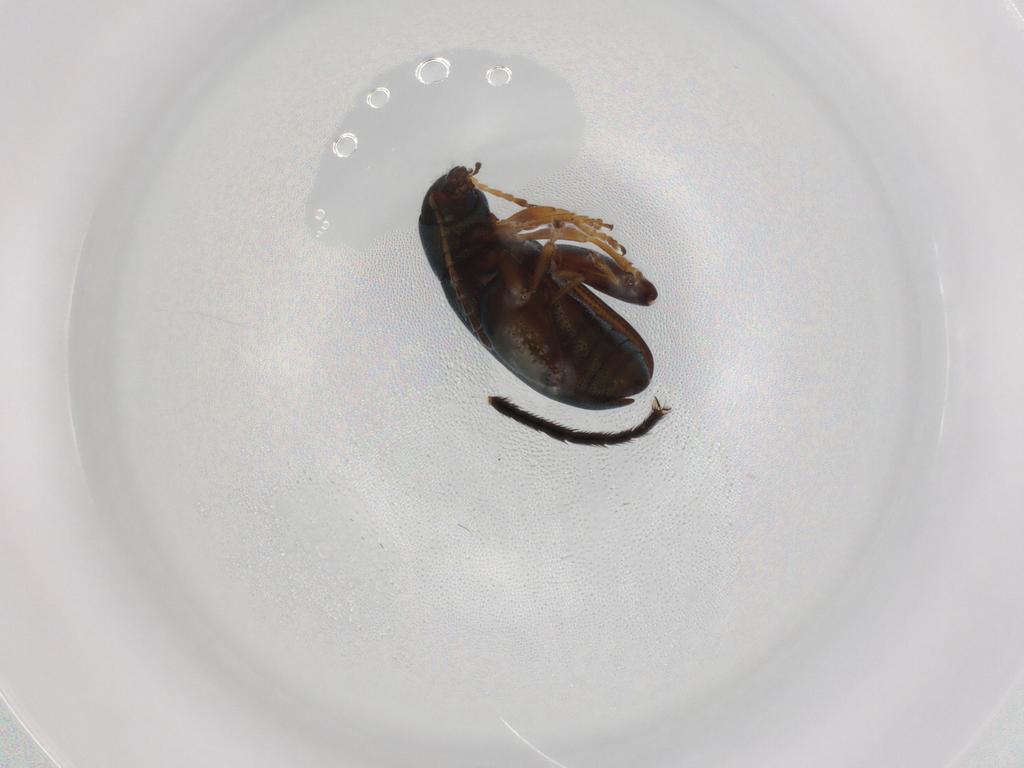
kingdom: Animalia
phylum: Arthropoda
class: Insecta
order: Coleoptera
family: Chrysomelidae
